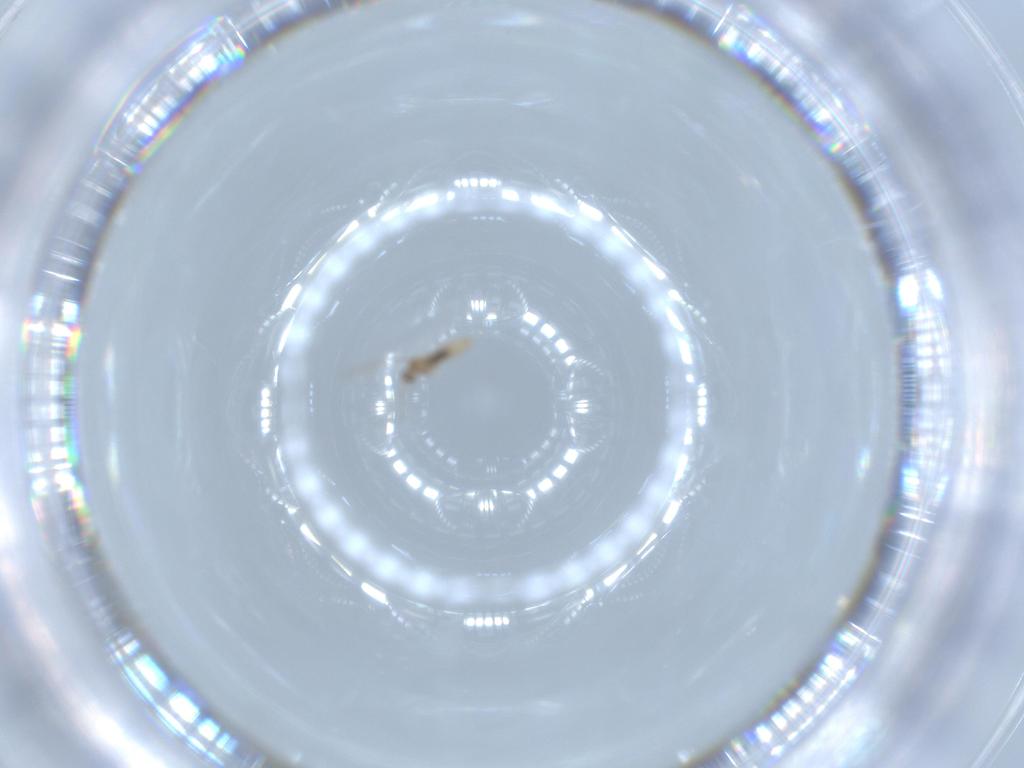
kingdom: Animalia
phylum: Arthropoda
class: Insecta
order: Diptera
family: Cecidomyiidae
